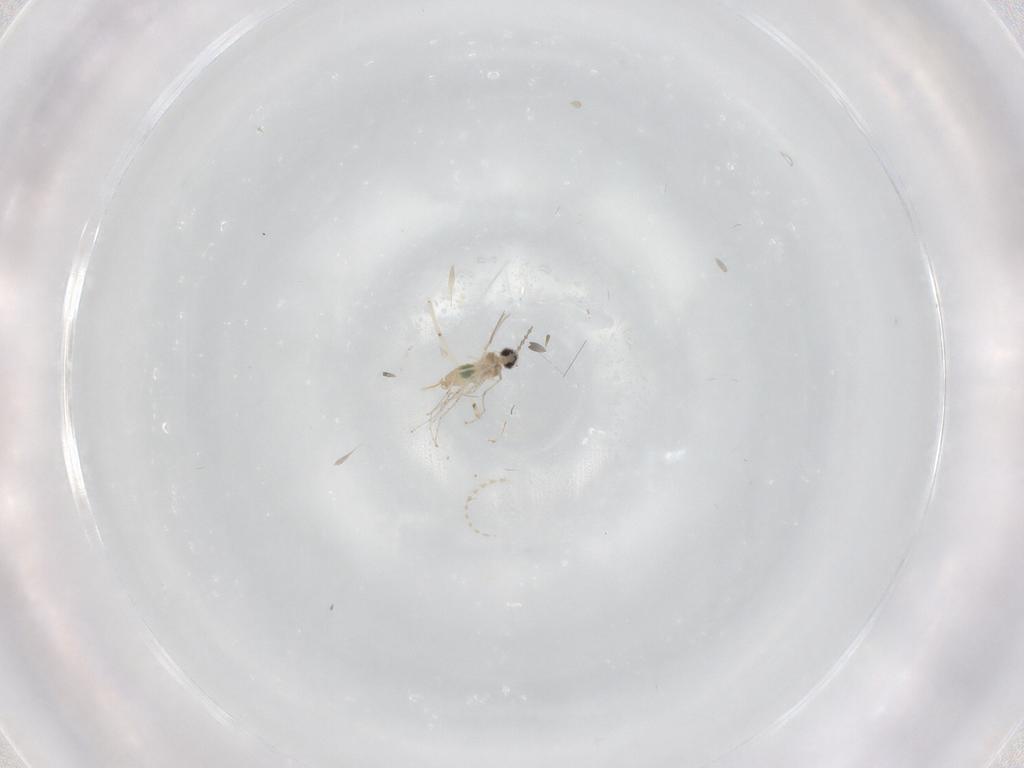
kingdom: Animalia
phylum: Arthropoda
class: Insecta
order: Diptera
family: Cecidomyiidae
